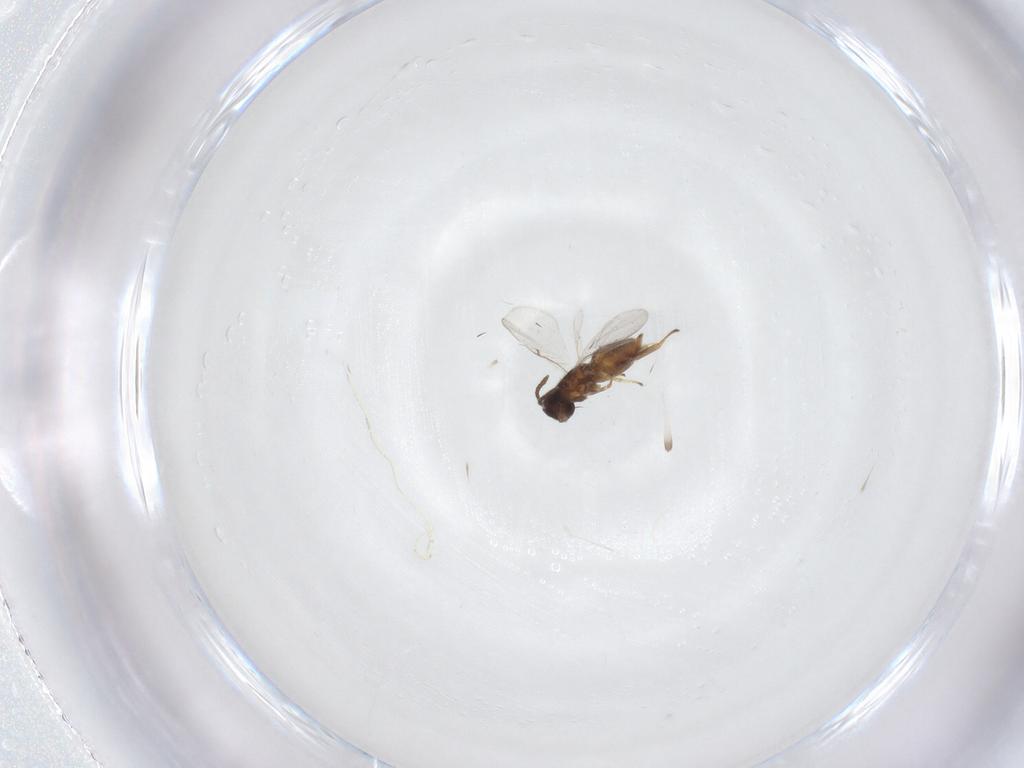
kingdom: Animalia
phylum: Arthropoda
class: Insecta
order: Hymenoptera
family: Encyrtidae
